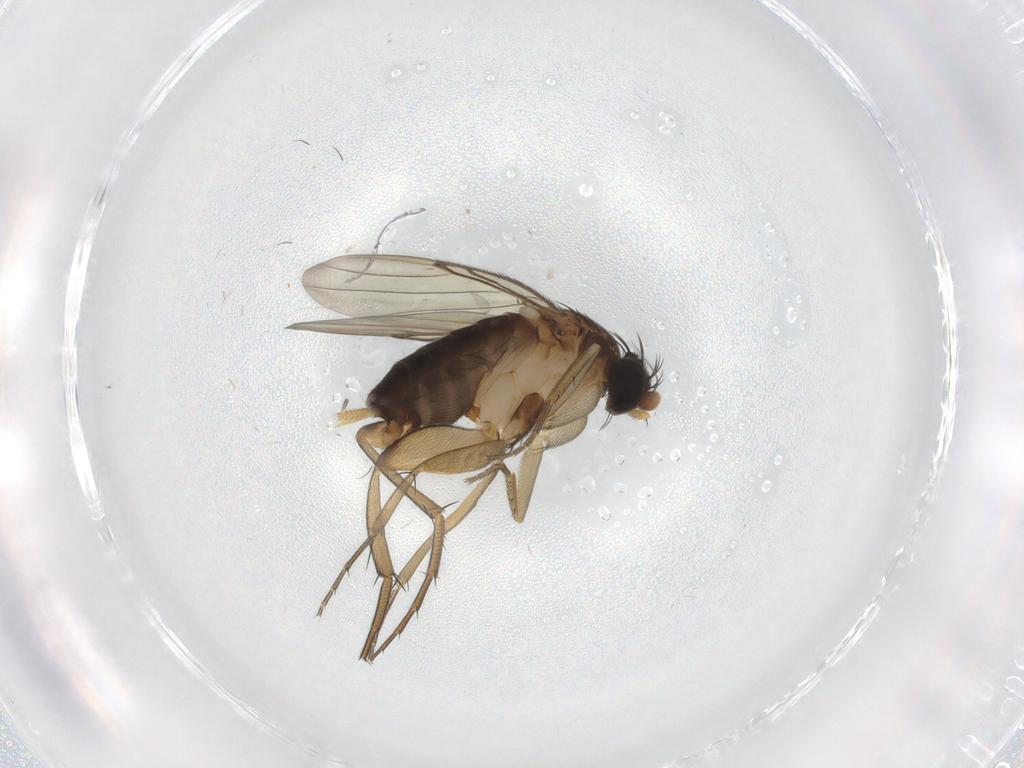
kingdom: Animalia
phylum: Arthropoda
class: Insecta
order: Diptera
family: Phoridae
